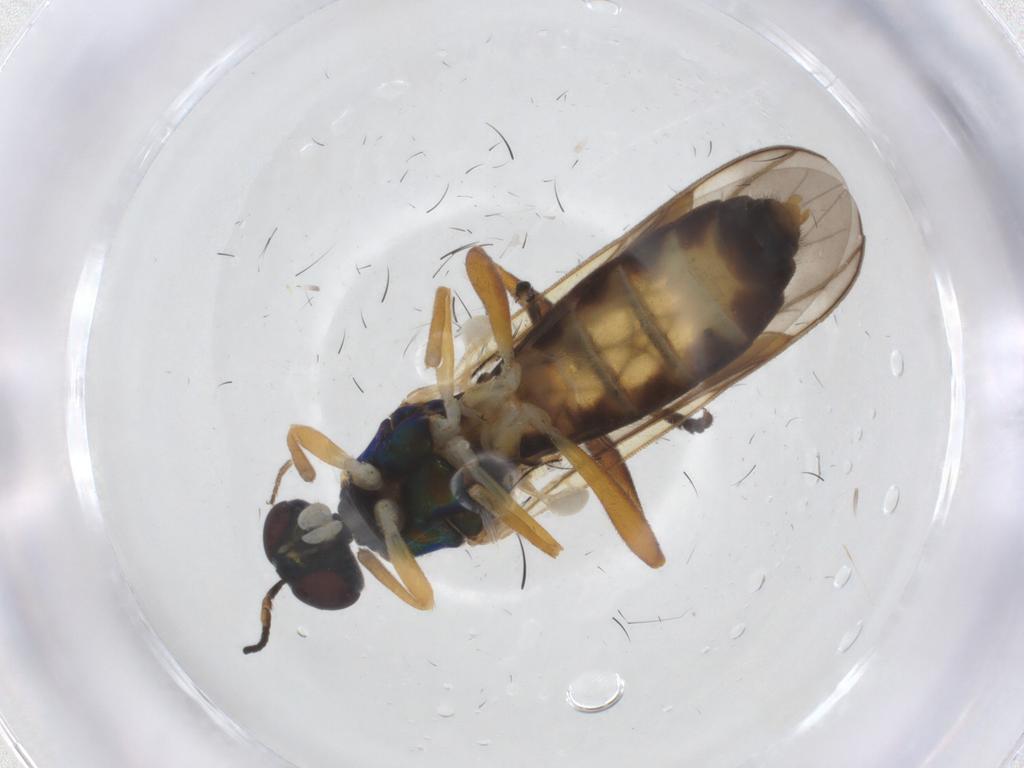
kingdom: Animalia
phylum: Arthropoda
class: Insecta
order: Diptera
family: Stratiomyidae
